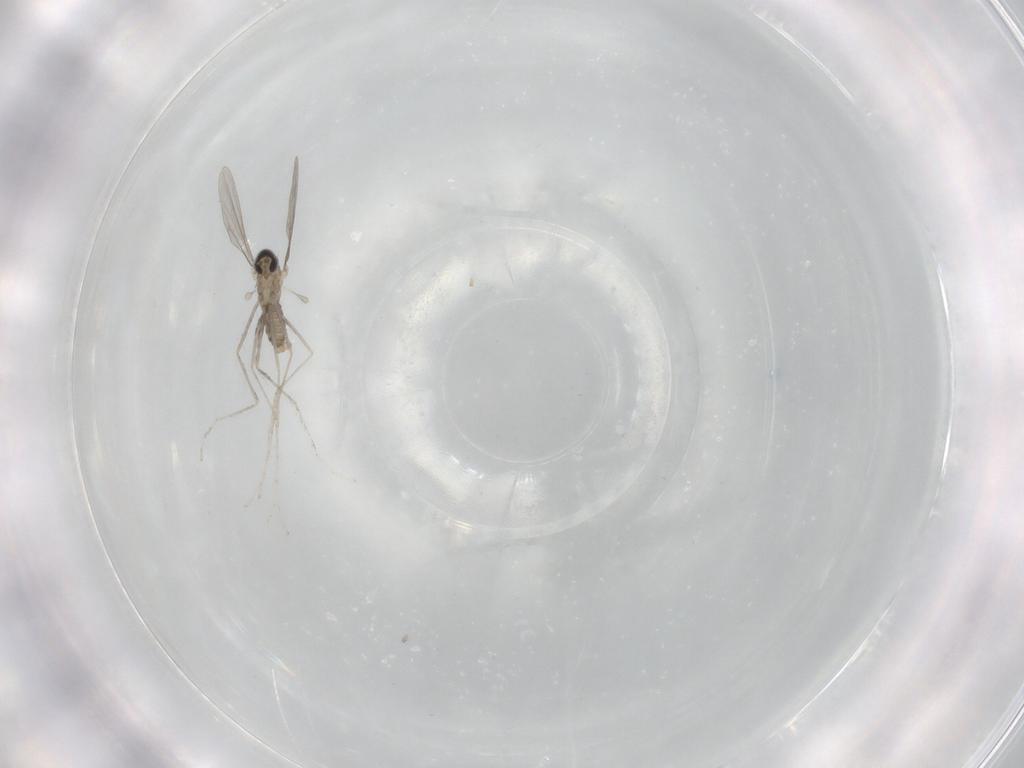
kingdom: Animalia
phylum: Arthropoda
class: Insecta
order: Diptera
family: Cecidomyiidae
